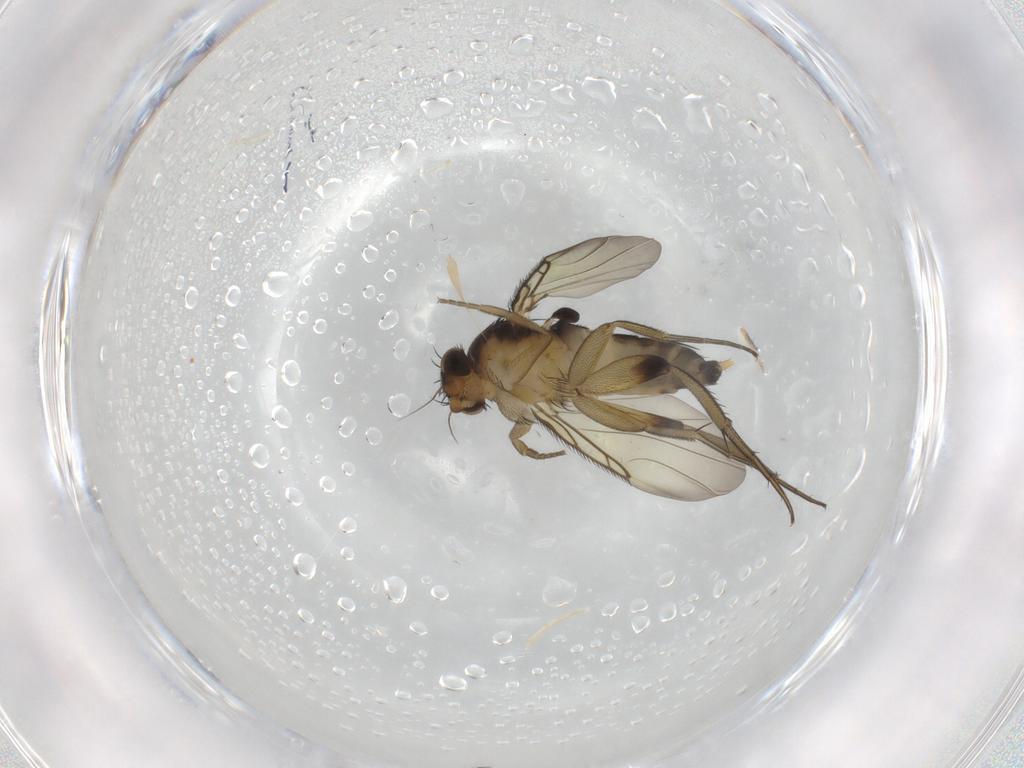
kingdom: Animalia
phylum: Arthropoda
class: Insecta
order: Diptera
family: Phoridae
